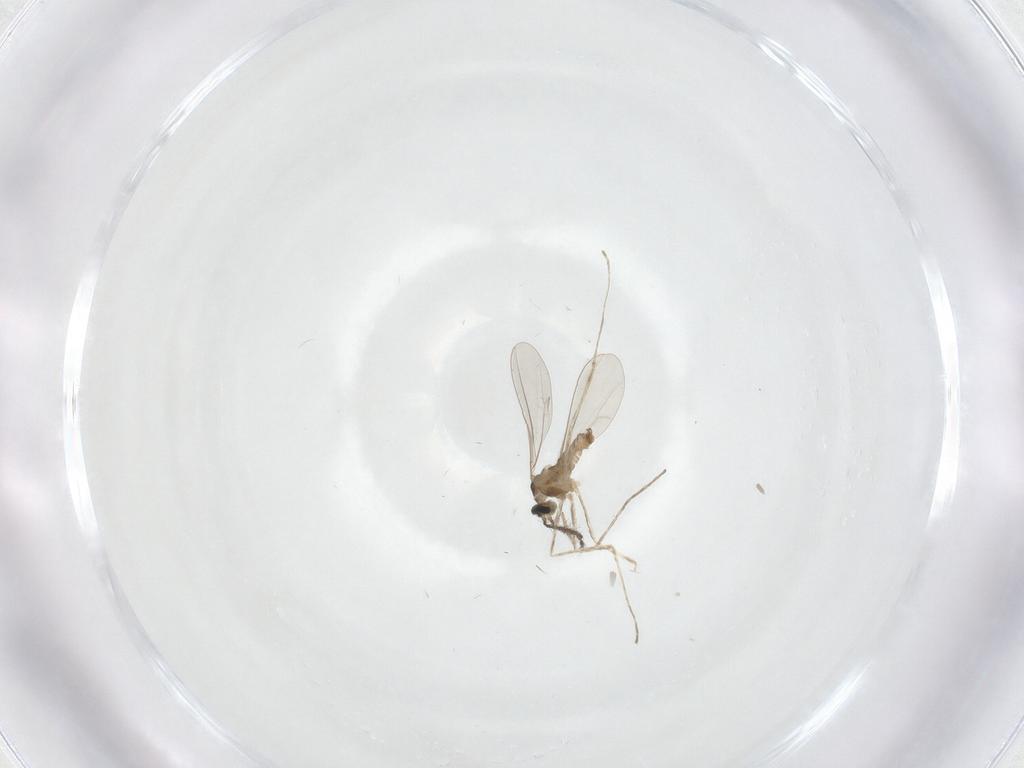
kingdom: Animalia
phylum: Arthropoda
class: Insecta
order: Diptera
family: Cecidomyiidae
